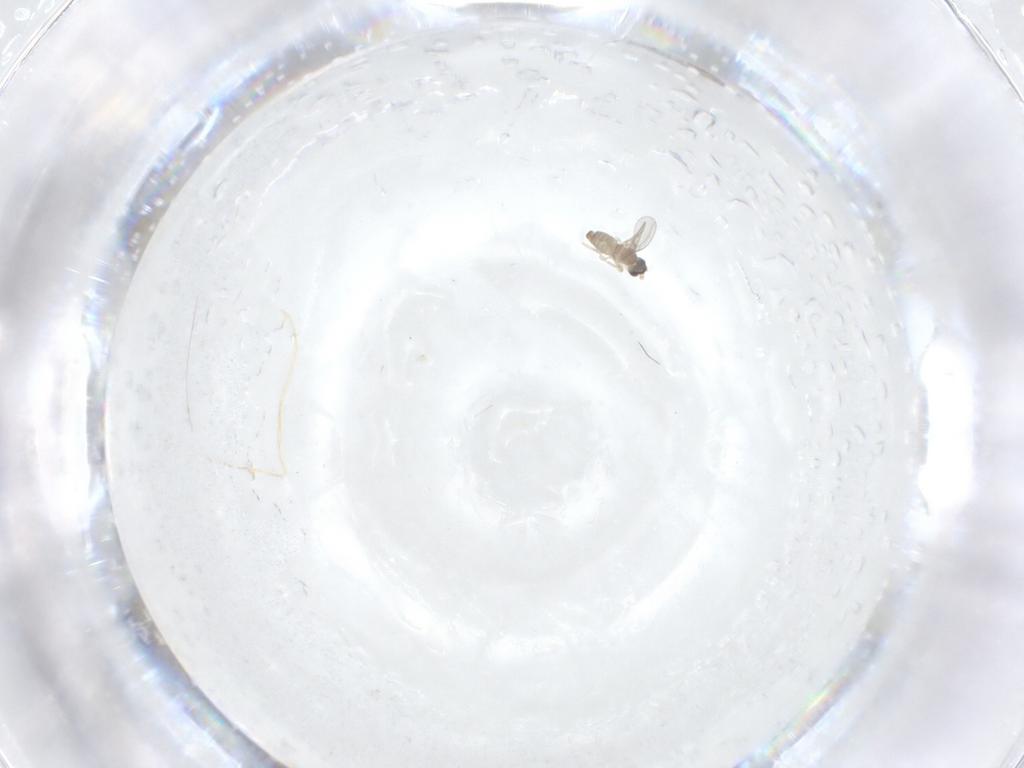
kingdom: Animalia
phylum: Arthropoda
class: Insecta
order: Diptera
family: Cecidomyiidae
